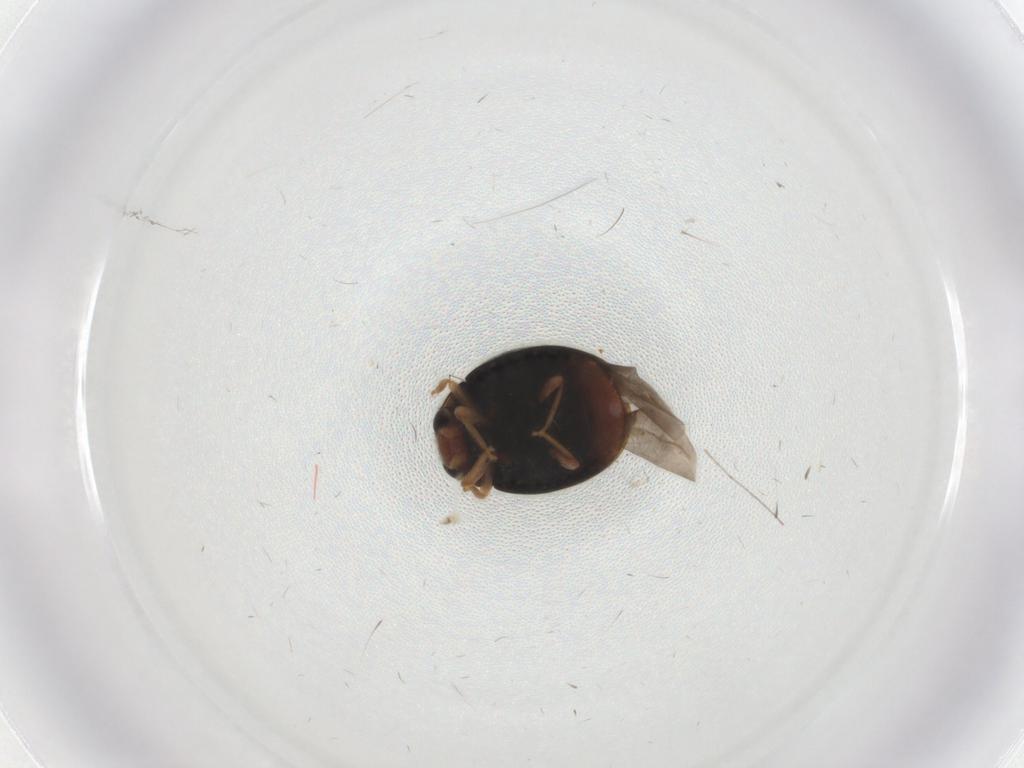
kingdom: Animalia
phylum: Arthropoda
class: Insecta
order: Coleoptera
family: Coccinellidae
